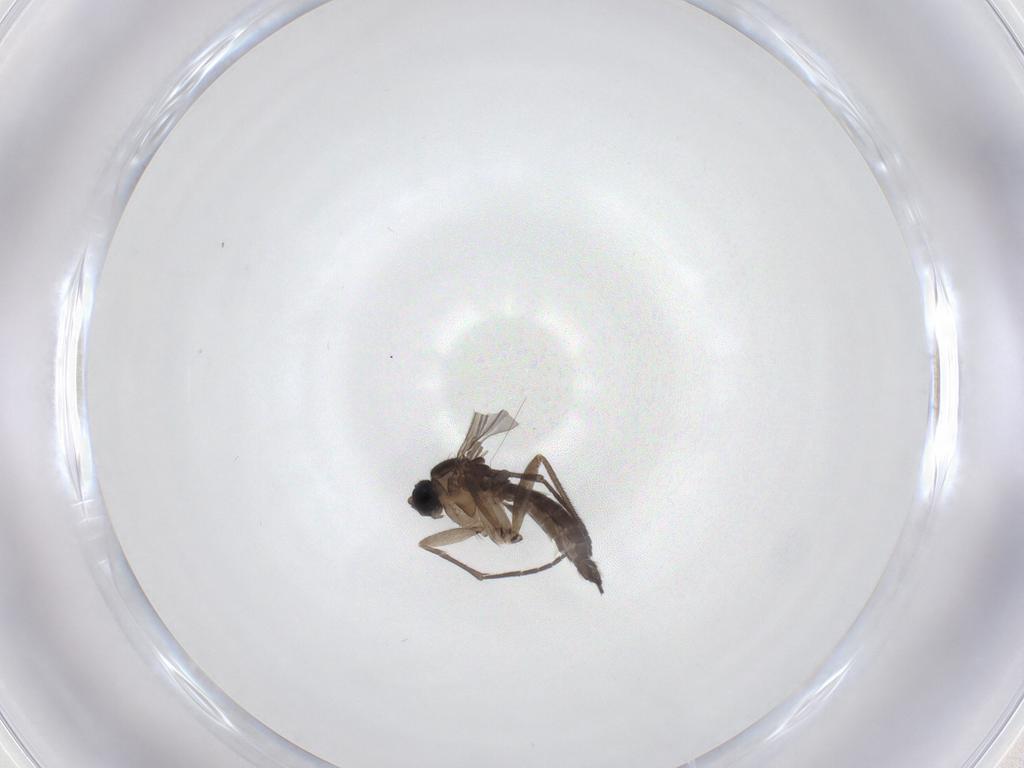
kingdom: Animalia
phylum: Arthropoda
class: Insecta
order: Diptera
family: Sciaridae
